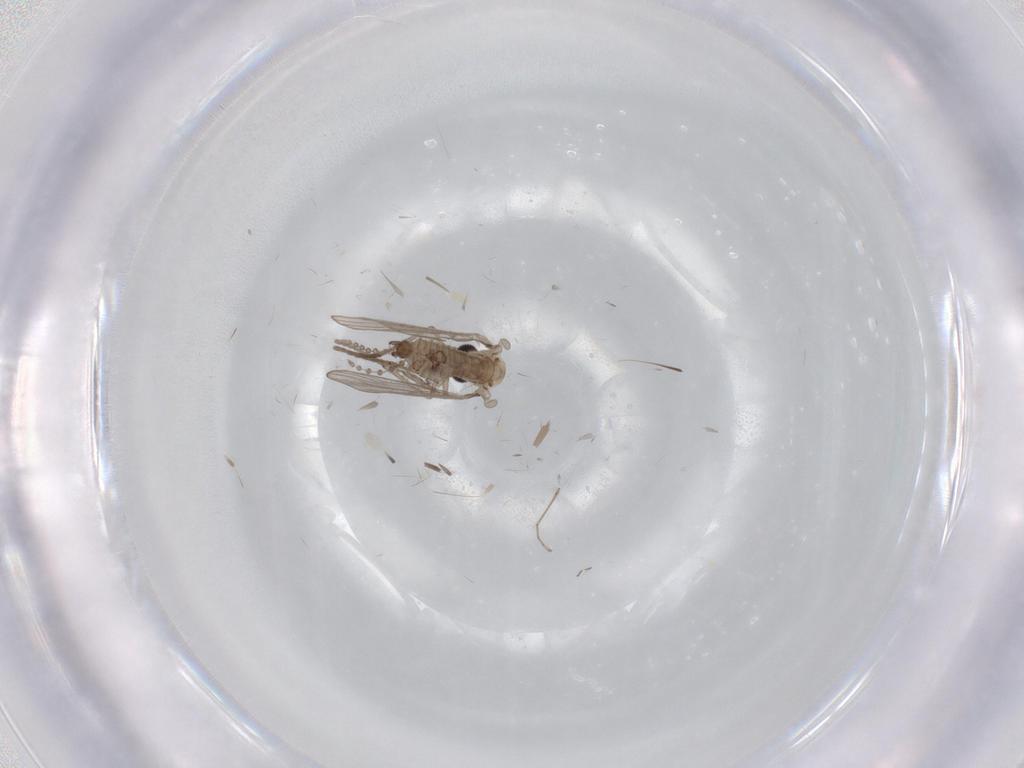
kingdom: Animalia
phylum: Arthropoda
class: Insecta
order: Diptera
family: Psychodidae
